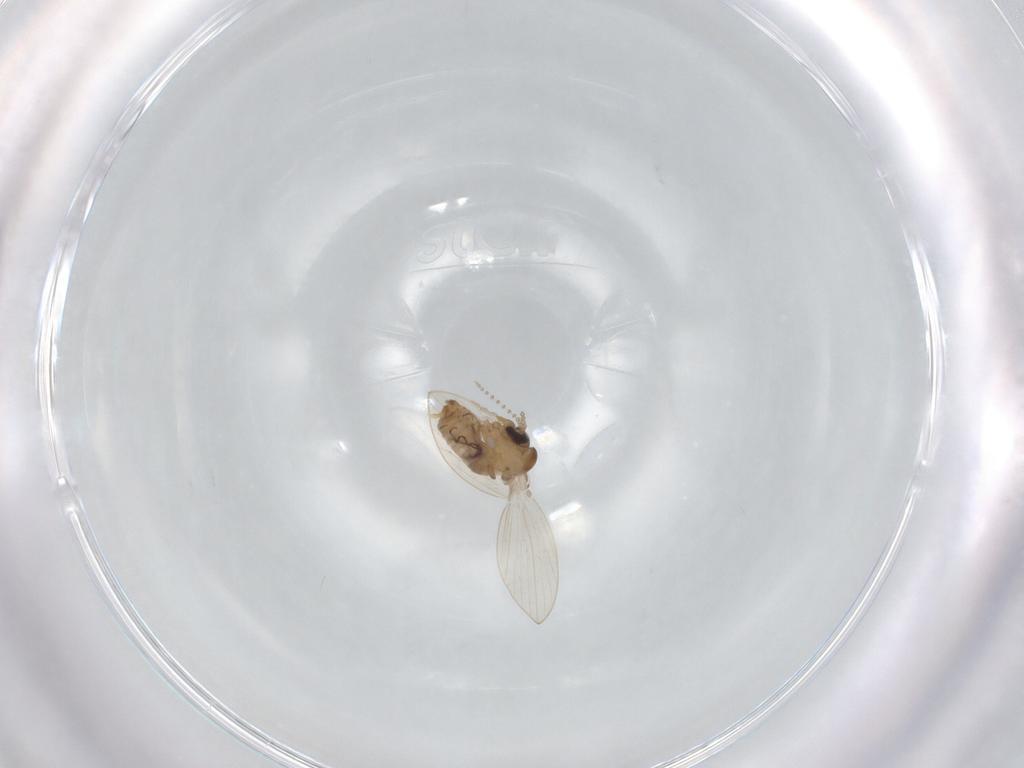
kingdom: Animalia
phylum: Arthropoda
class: Insecta
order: Diptera
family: Psychodidae
